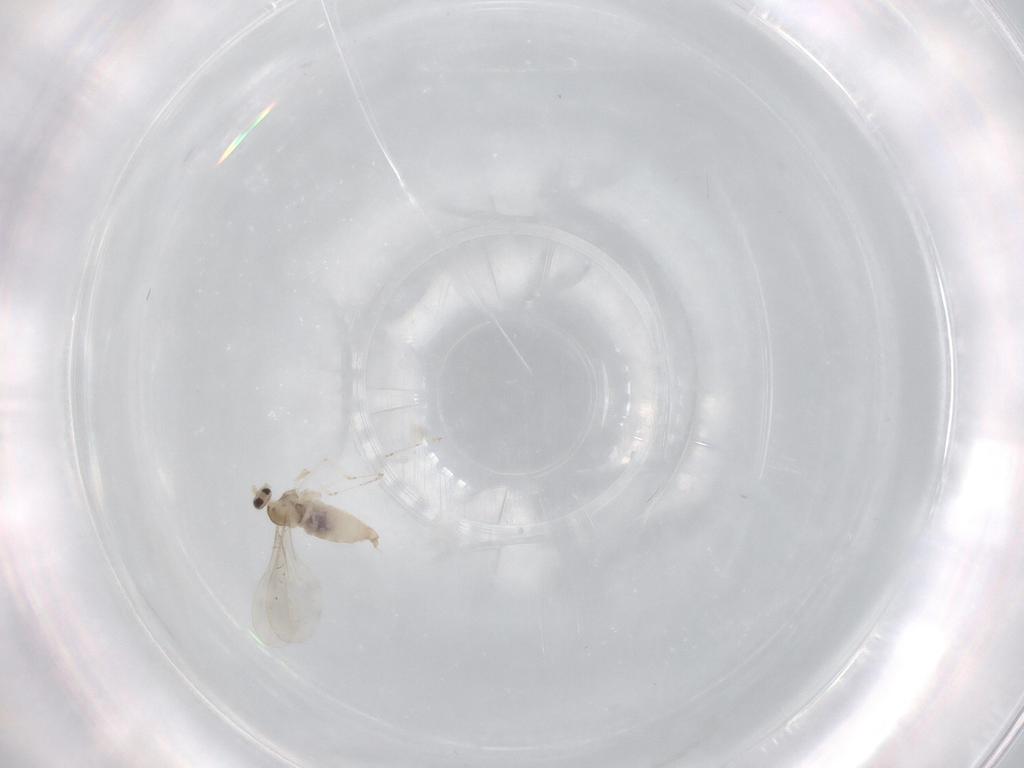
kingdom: Animalia
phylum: Arthropoda
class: Insecta
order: Diptera
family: Cecidomyiidae
